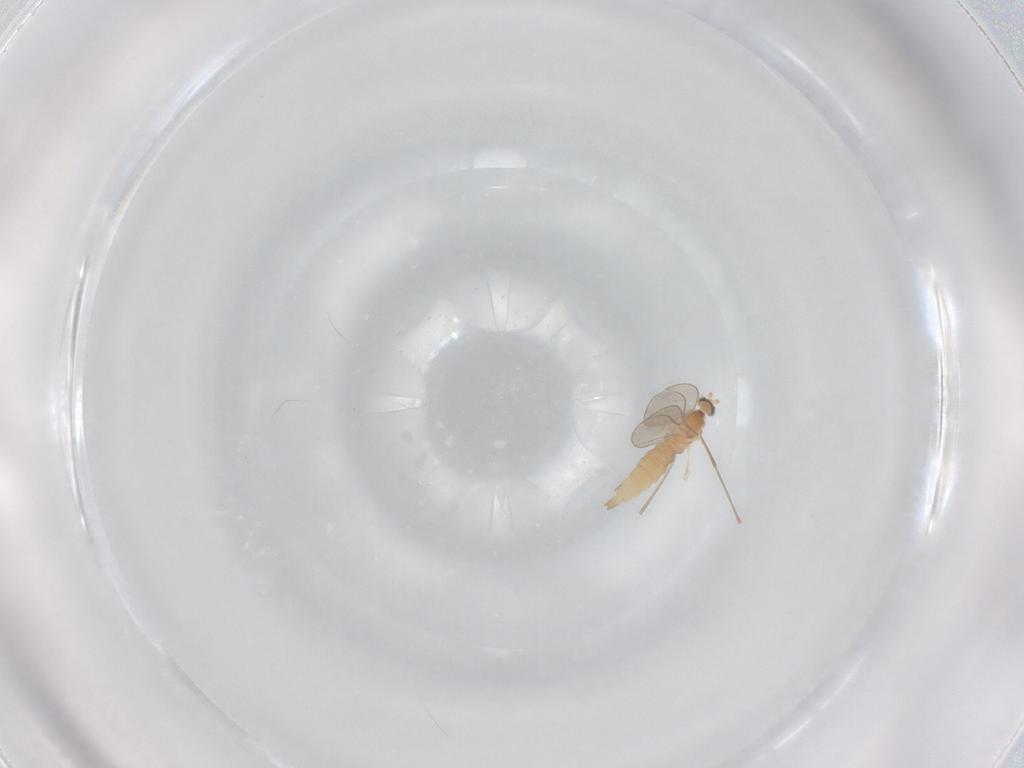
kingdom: Animalia
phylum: Arthropoda
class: Insecta
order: Diptera
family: Cecidomyiidae
